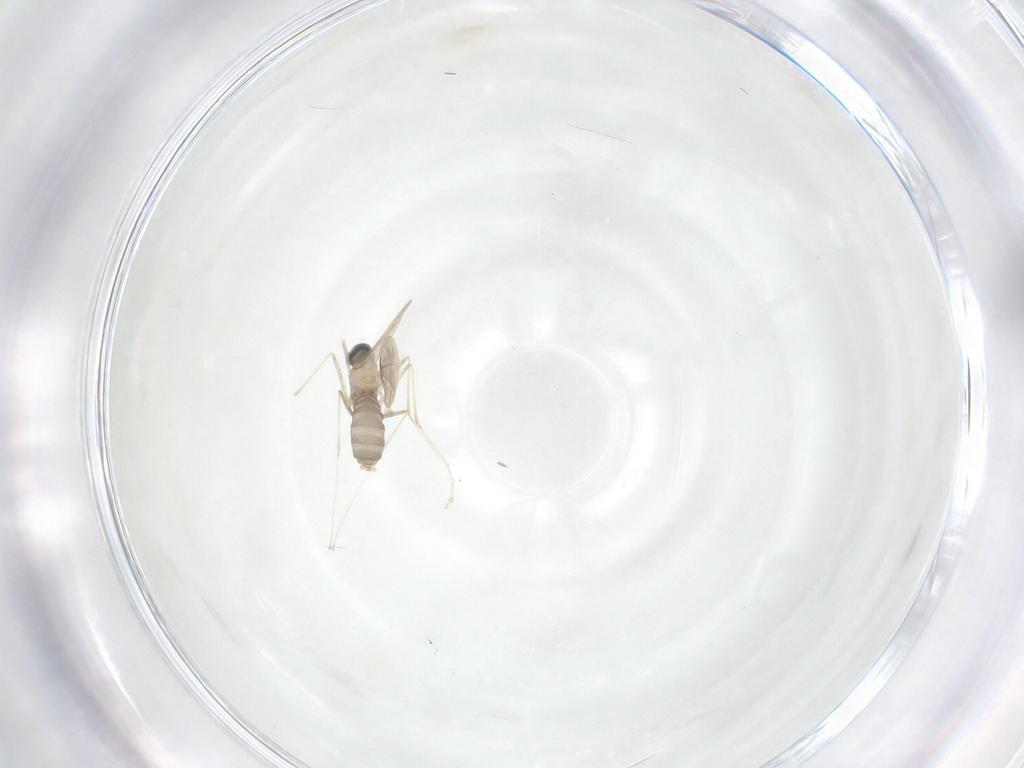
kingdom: Animalia
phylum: Arthropoda
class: Insecta
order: Diptera
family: Cecidomyiidae
